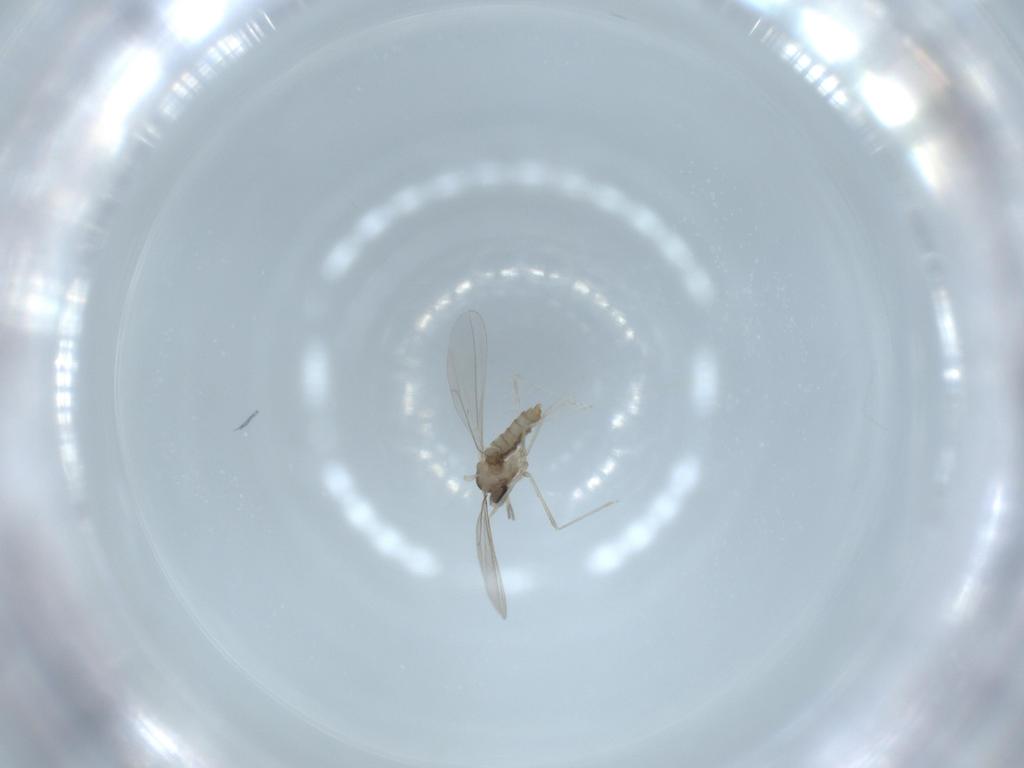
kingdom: Animalia
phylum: Arthropoda
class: Insecta
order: Diptera
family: Cecidomyiidae
